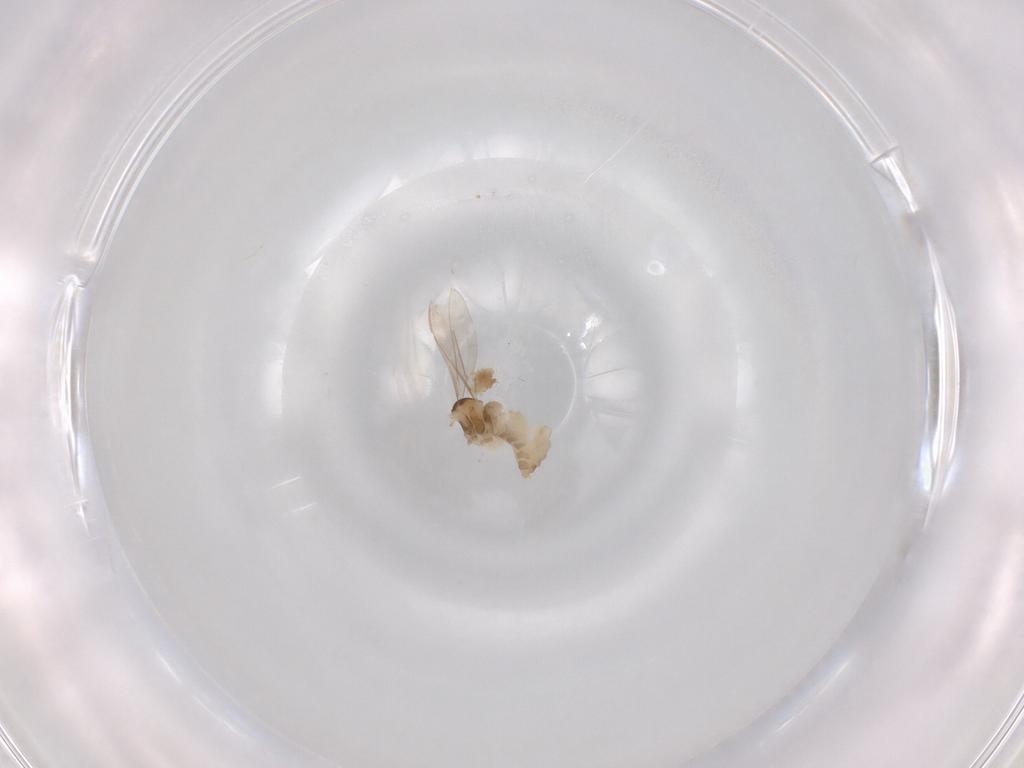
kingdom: Animalia
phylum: Arthropoda
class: Insecta
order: Diptera
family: Cecidomyiidae
